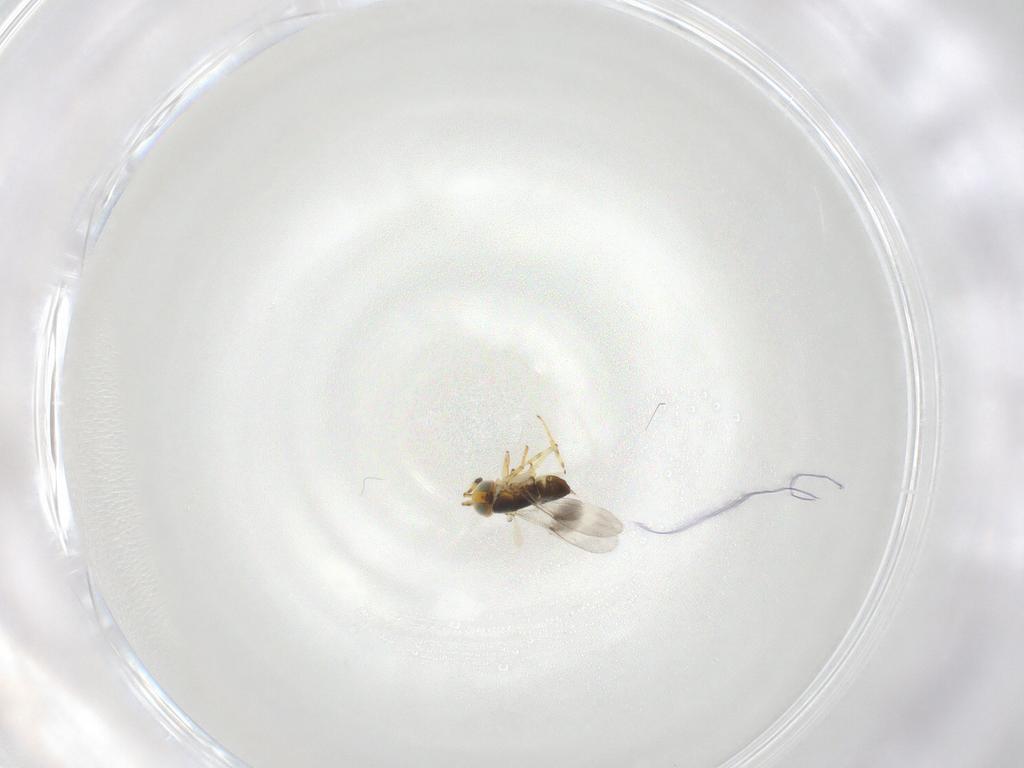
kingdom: Animalia
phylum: Arthropoda
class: Insecta
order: Hymenoptera
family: Encyrtidae
